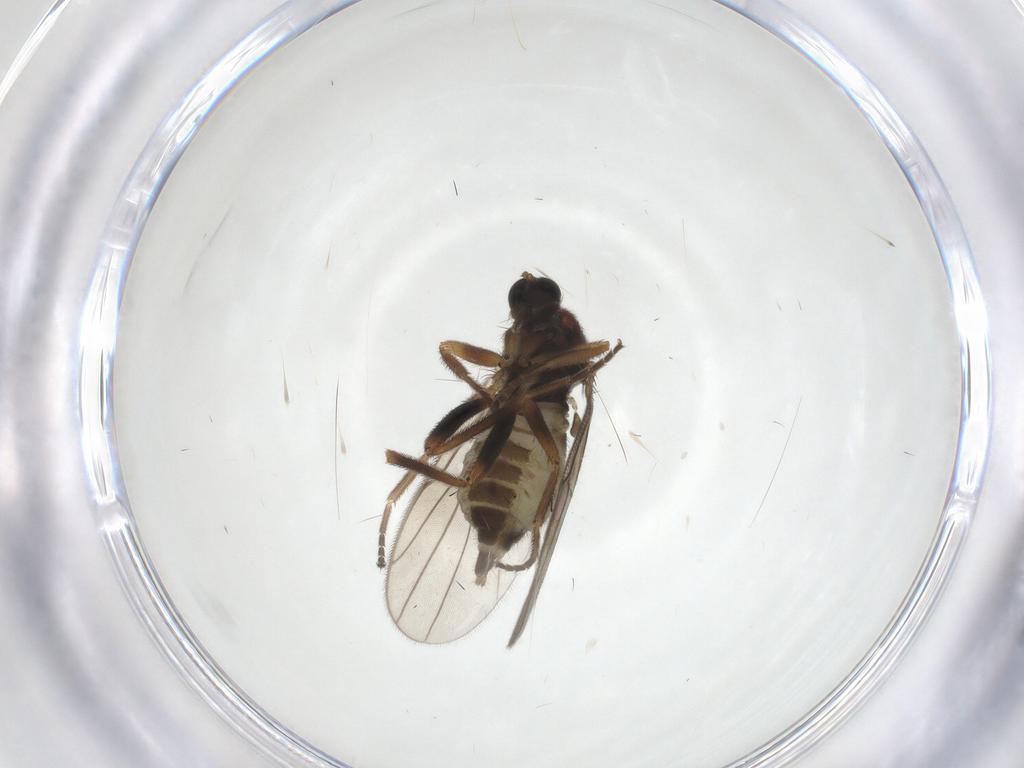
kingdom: Animalia
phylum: Arthropoda
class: Insecta
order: Diptera
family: Hybotidae
